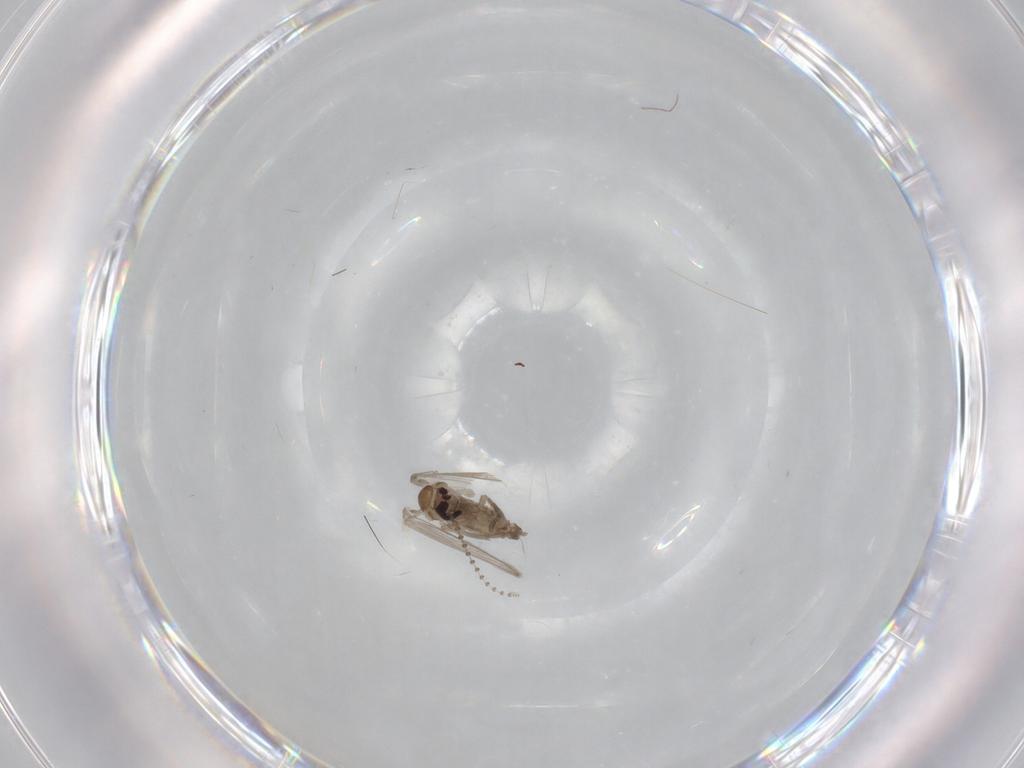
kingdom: Animalia
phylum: Arthropoda
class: Insecta
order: Diptera
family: Psychodidae
